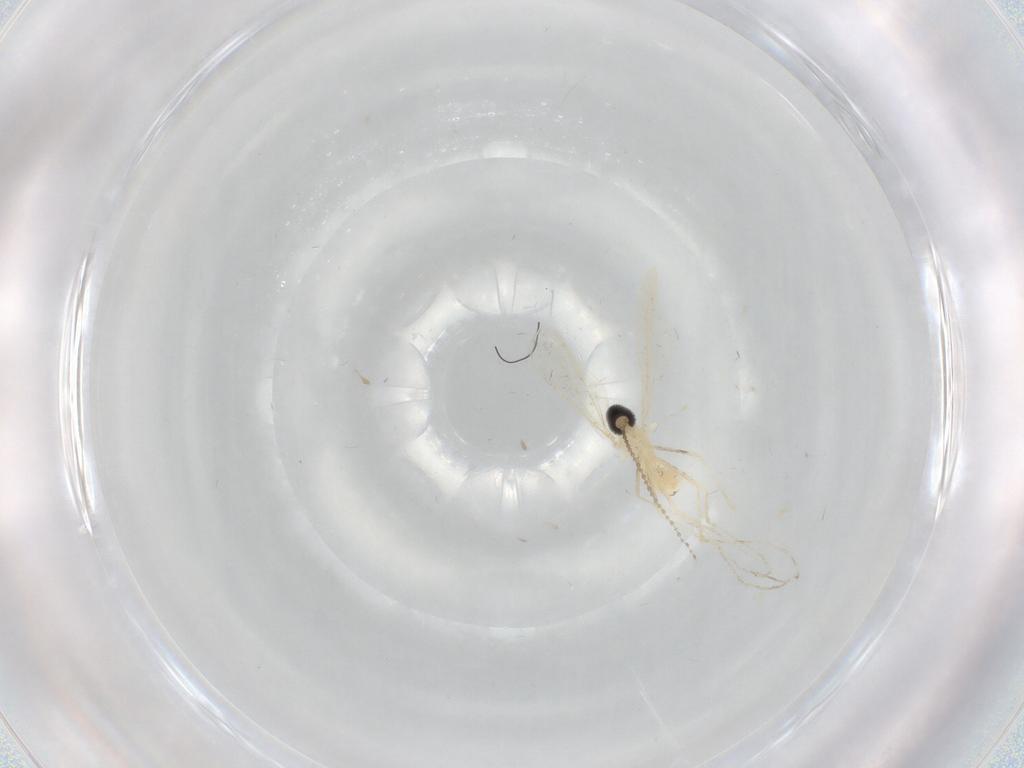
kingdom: Animalia
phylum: Arthropoda
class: Insecta
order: Diptera
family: Cecidomyiidae
